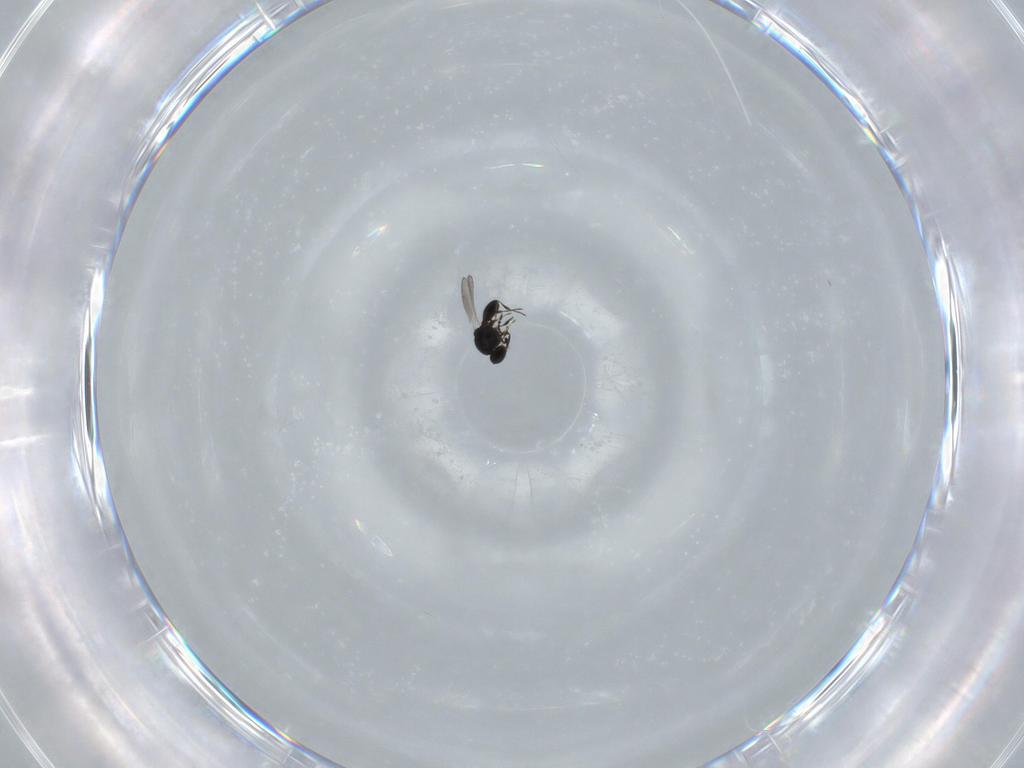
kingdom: Animalia
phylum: Arthropoda
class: Insecta
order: Hymenoptera
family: Platygastridae
